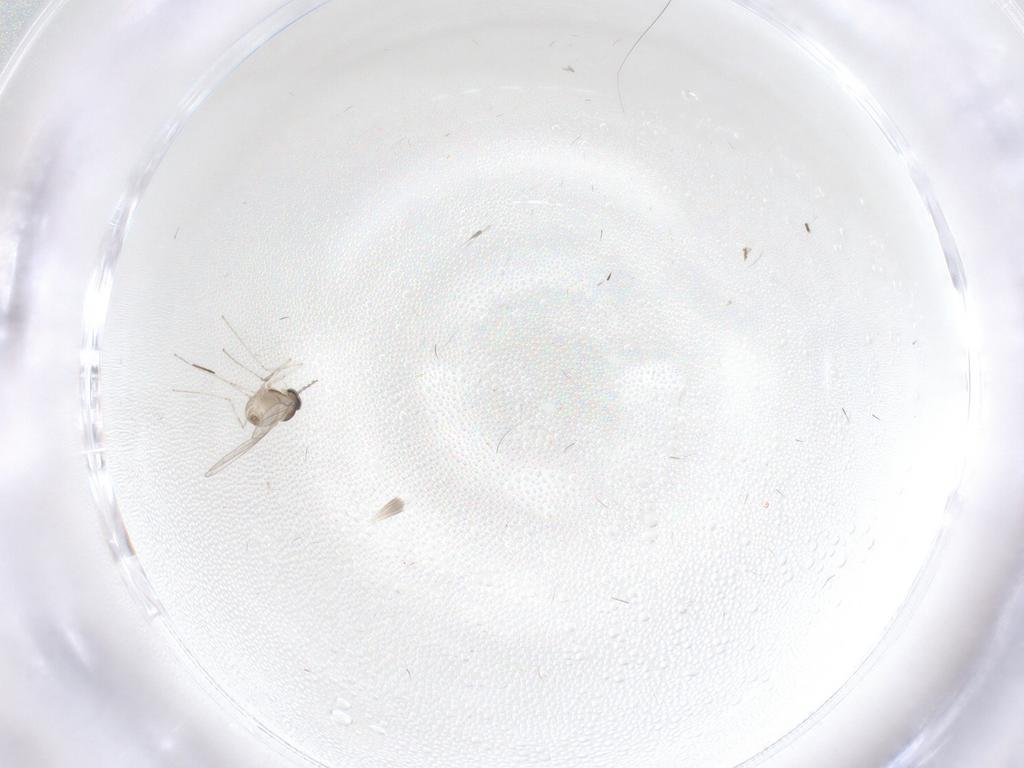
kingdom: Animalia
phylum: Arthropoda
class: Insecta
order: Diptera
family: Cecidomyiidae
